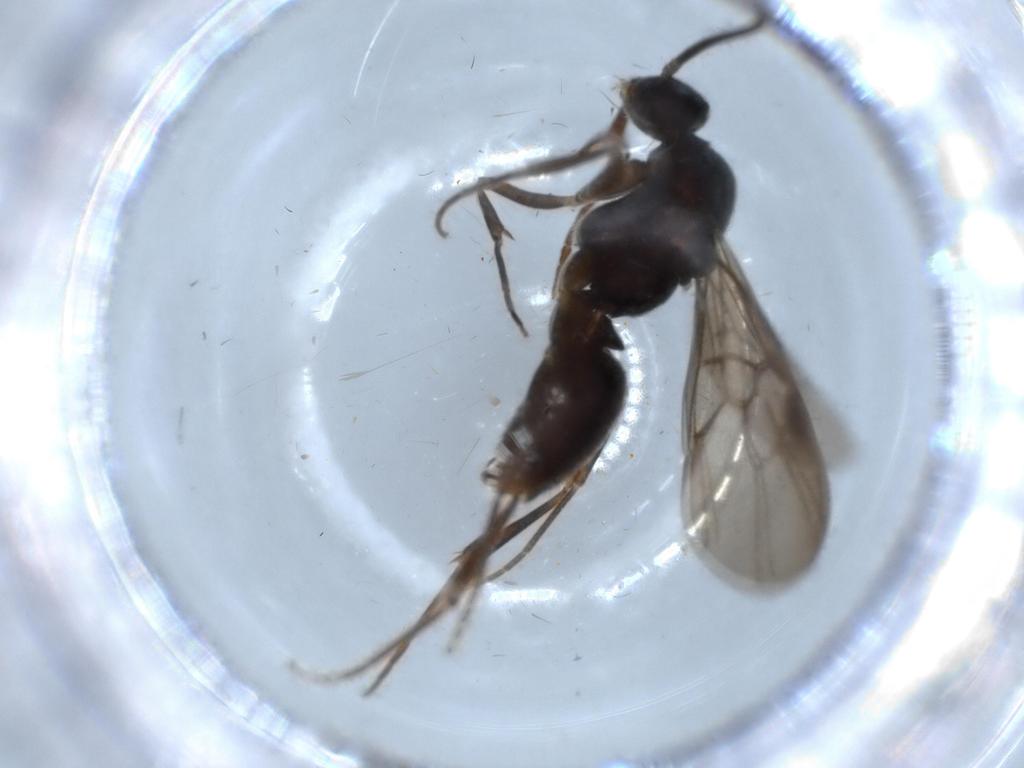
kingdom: Animalia
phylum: Arthropoda
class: Insecta
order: Hymenoptera
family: Formicidae
